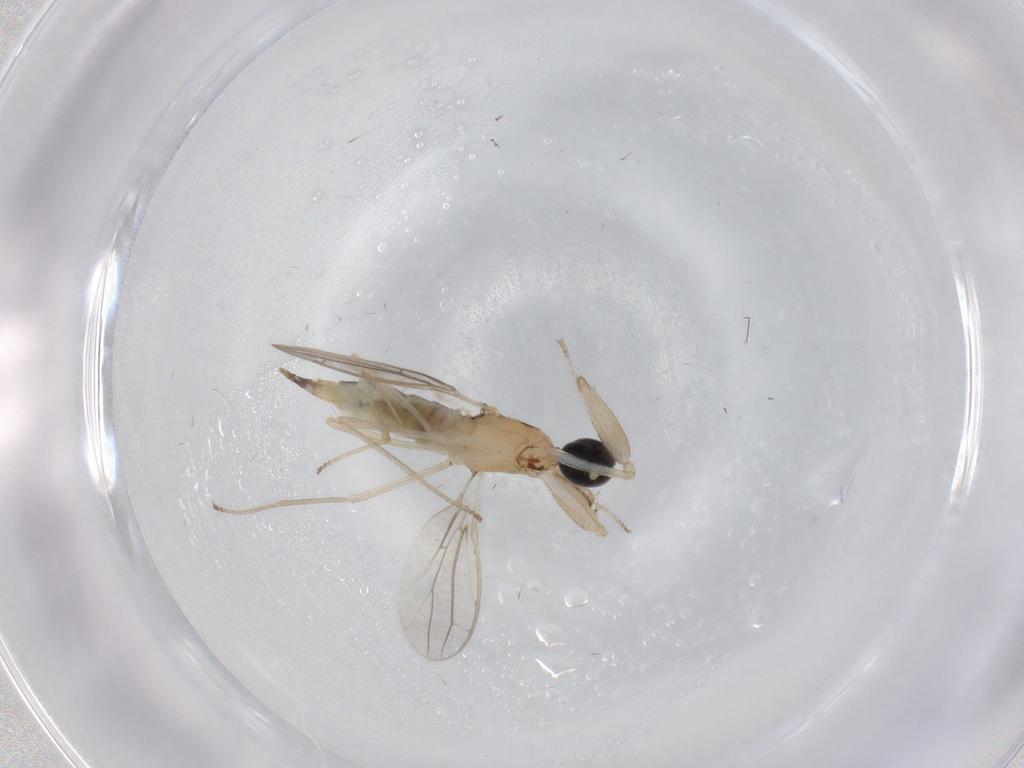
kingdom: Animalia
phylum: Arthropoda
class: Insecta
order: Diptera
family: Empididae
